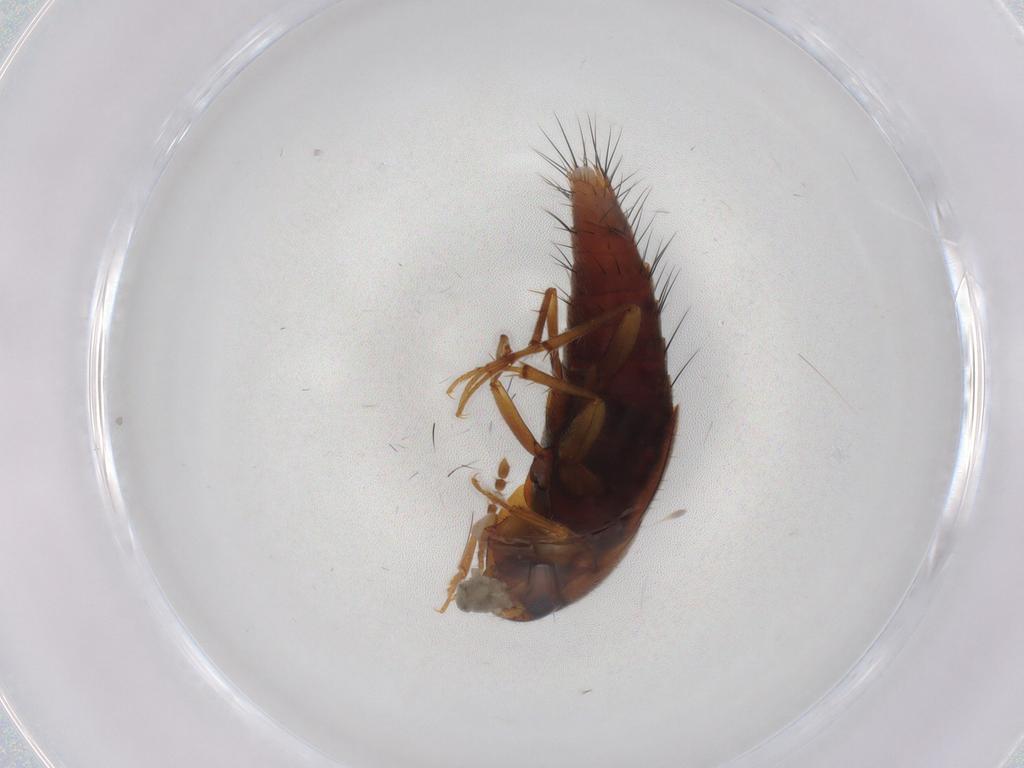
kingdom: Animalia
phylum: Arthropoda
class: Insecta
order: Coleoptera
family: Staphylinidae
